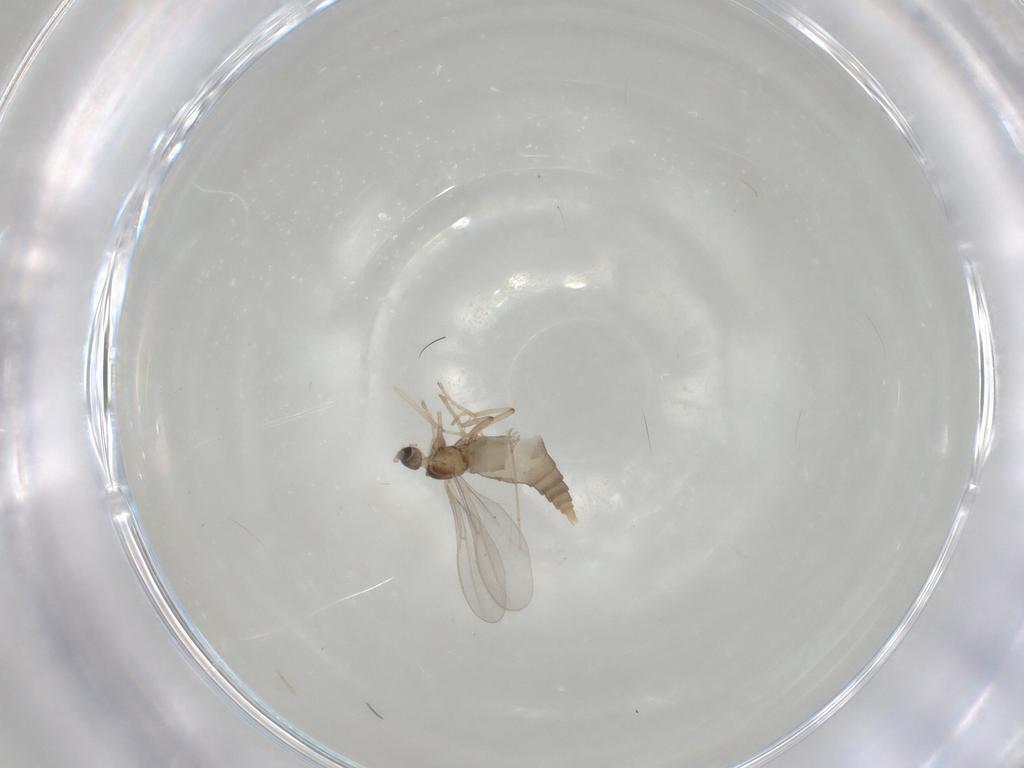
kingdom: Animalia
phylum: Arthropoda
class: Insecta
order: Diptera
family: Cecidomyiidae
